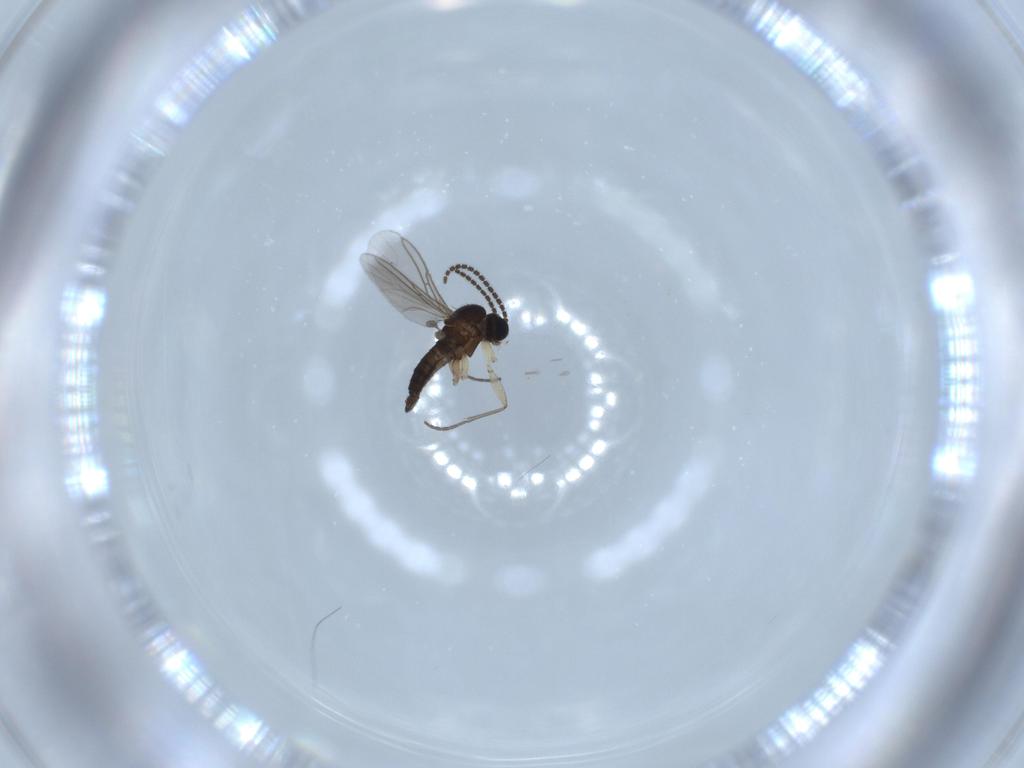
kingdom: Animalia
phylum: Arthropoda
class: Insecta
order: Diptera
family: Sciaridae
